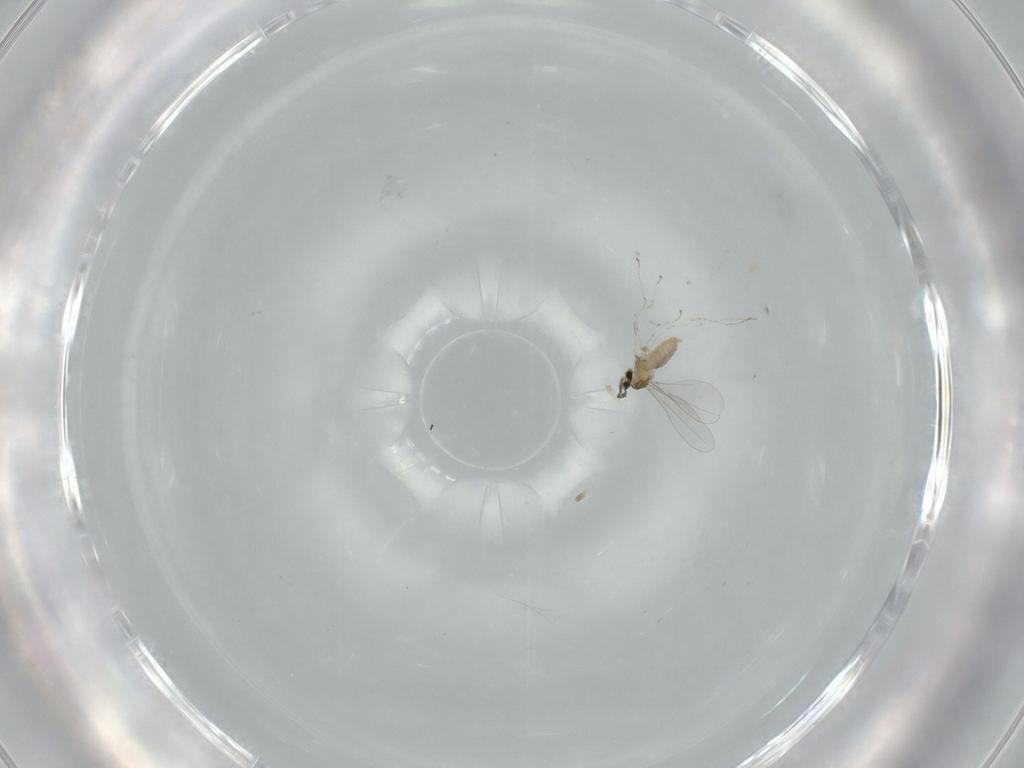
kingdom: Animalia
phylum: Arthropoda
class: Insecta
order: Diptera
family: Cecidomyiidae
